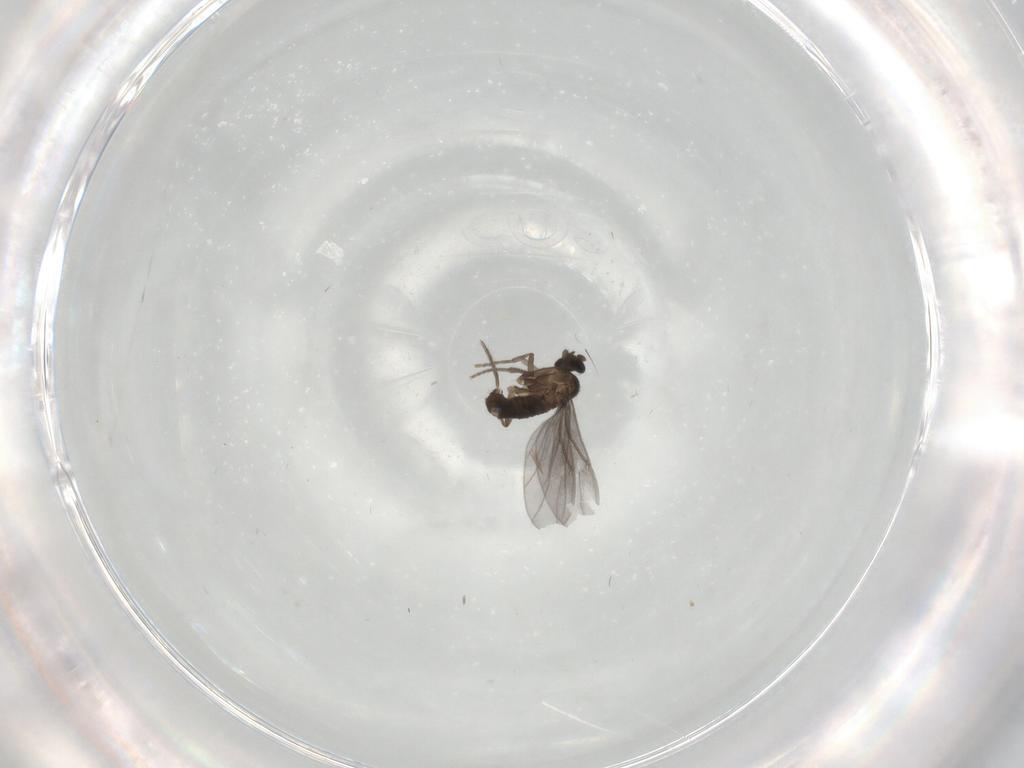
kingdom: Animalia
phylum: Arthropoda
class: Insecta
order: Diptera
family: Phoridae
